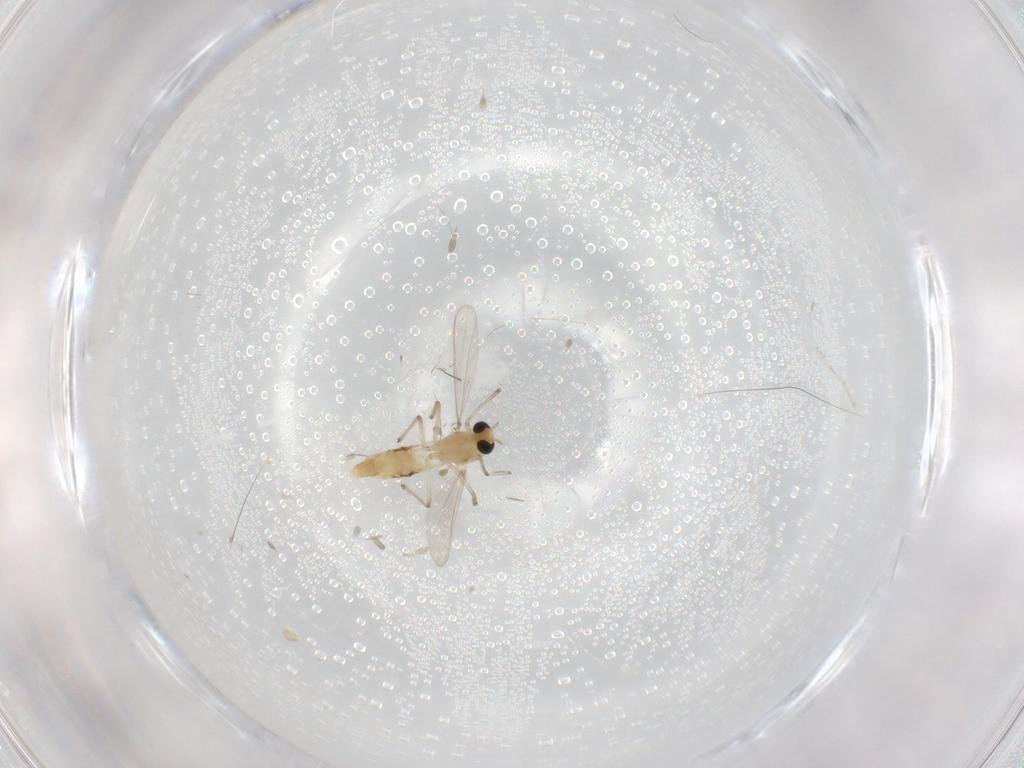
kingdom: Animalia
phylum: Arthropoda
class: Insecta
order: Diptera
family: Chironomidae
